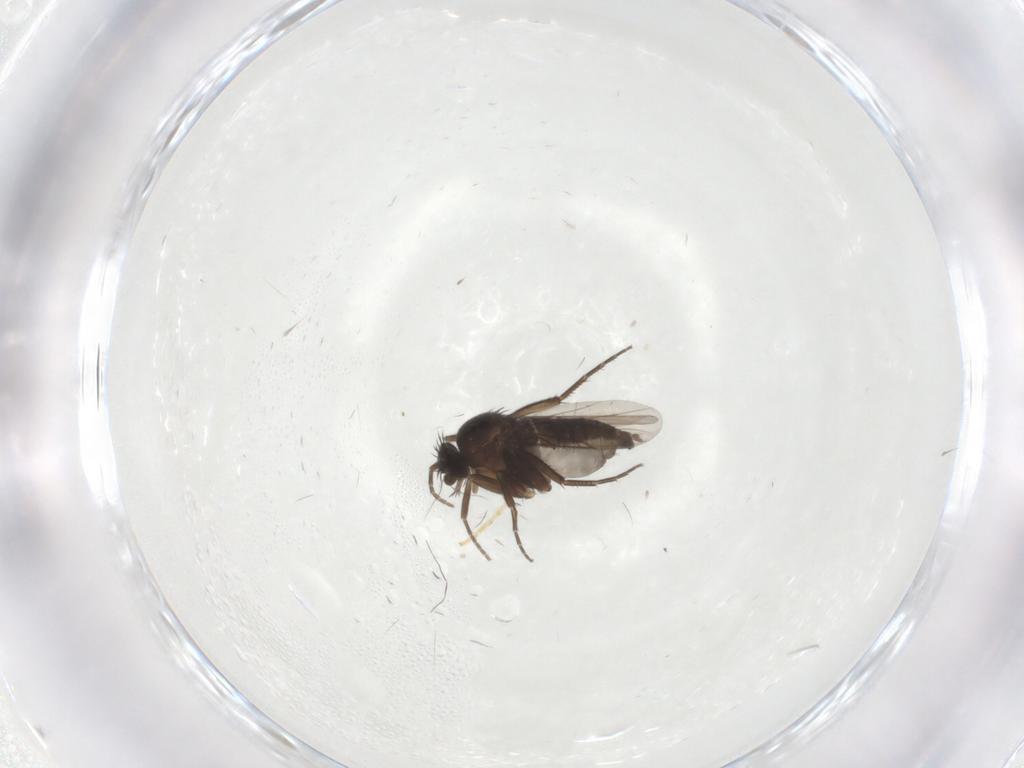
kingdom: Animalia
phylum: Arthropoda
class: Insecta
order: Diptera
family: Phoridae
